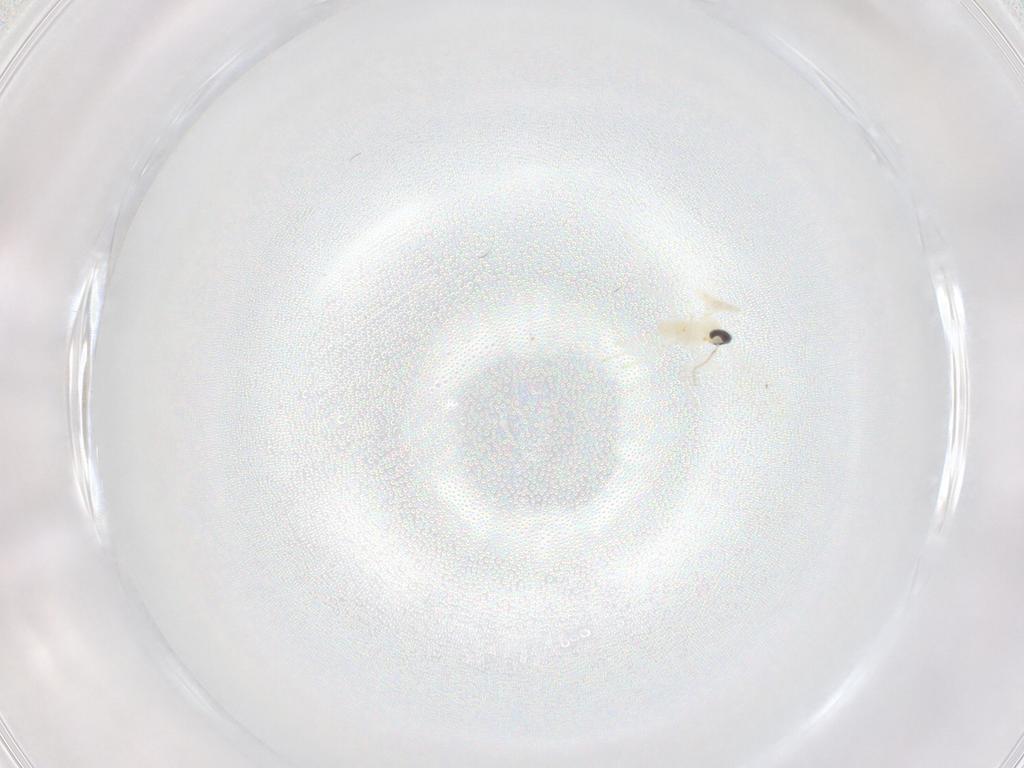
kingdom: Animalia
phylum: Arthropoda
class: Insecta
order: Diptera
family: Cecidomyiidae
